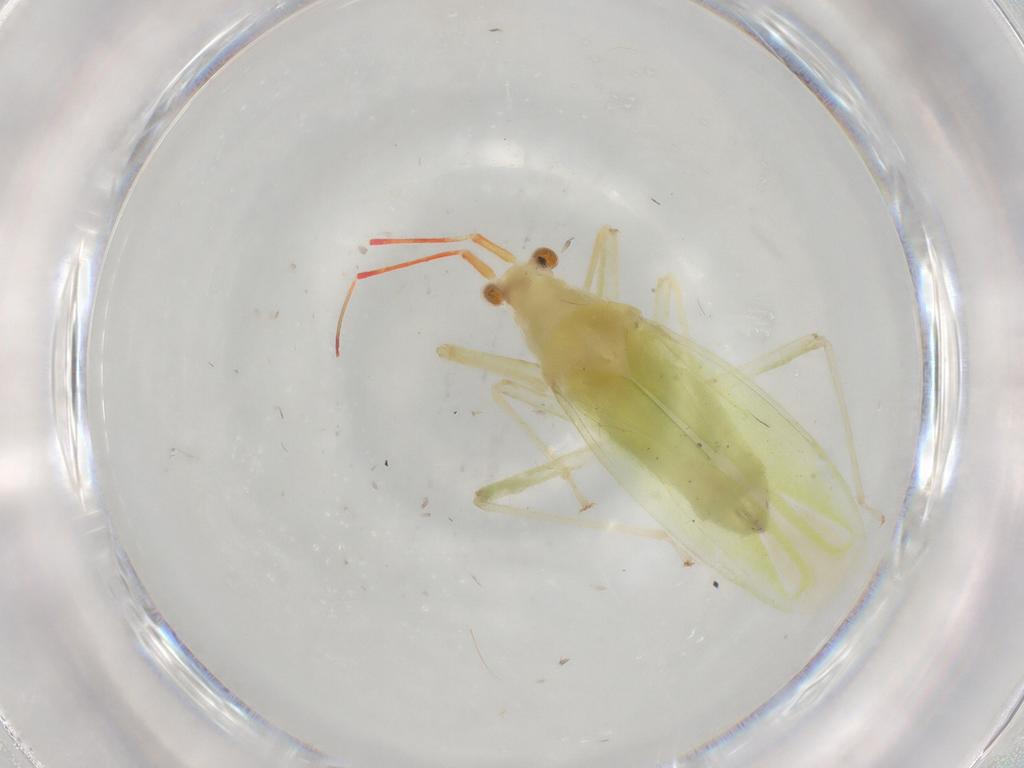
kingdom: Animalia
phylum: Arthropoda
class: Insecta
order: Hemiptera
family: Miridae
